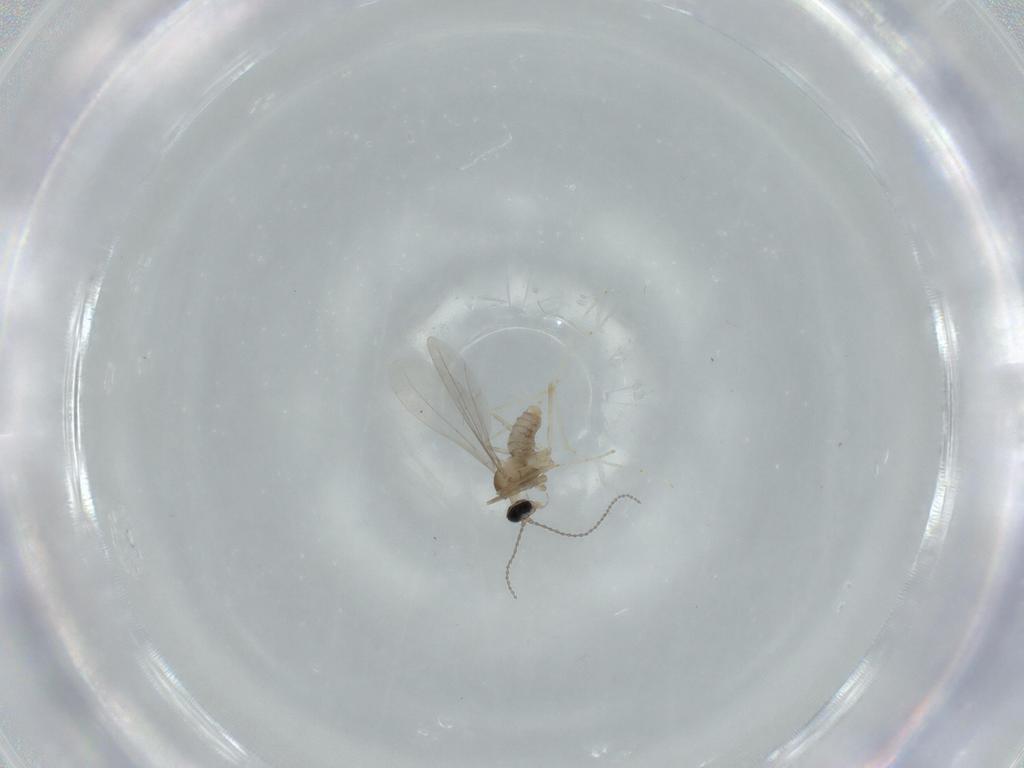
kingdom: Animalia
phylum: Arthropoda
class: Insecta
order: Diptera
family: Cecidomyiidae
